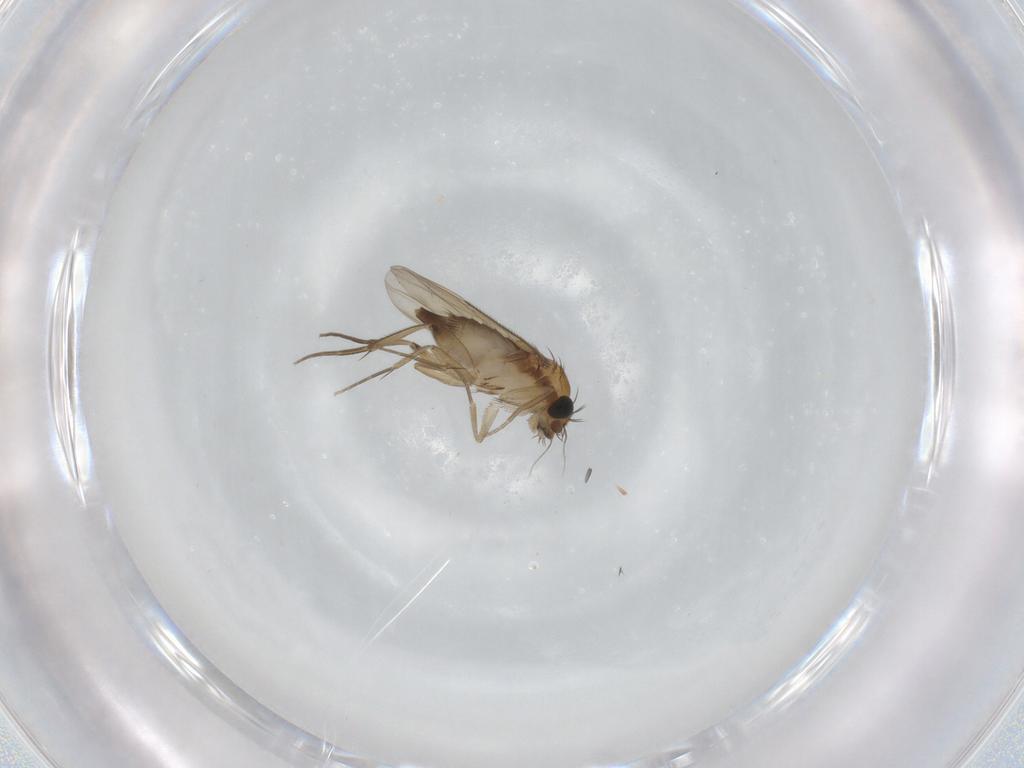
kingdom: Animalia
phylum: Arthropoda
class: Insecta
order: Diptera
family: Phoridae
